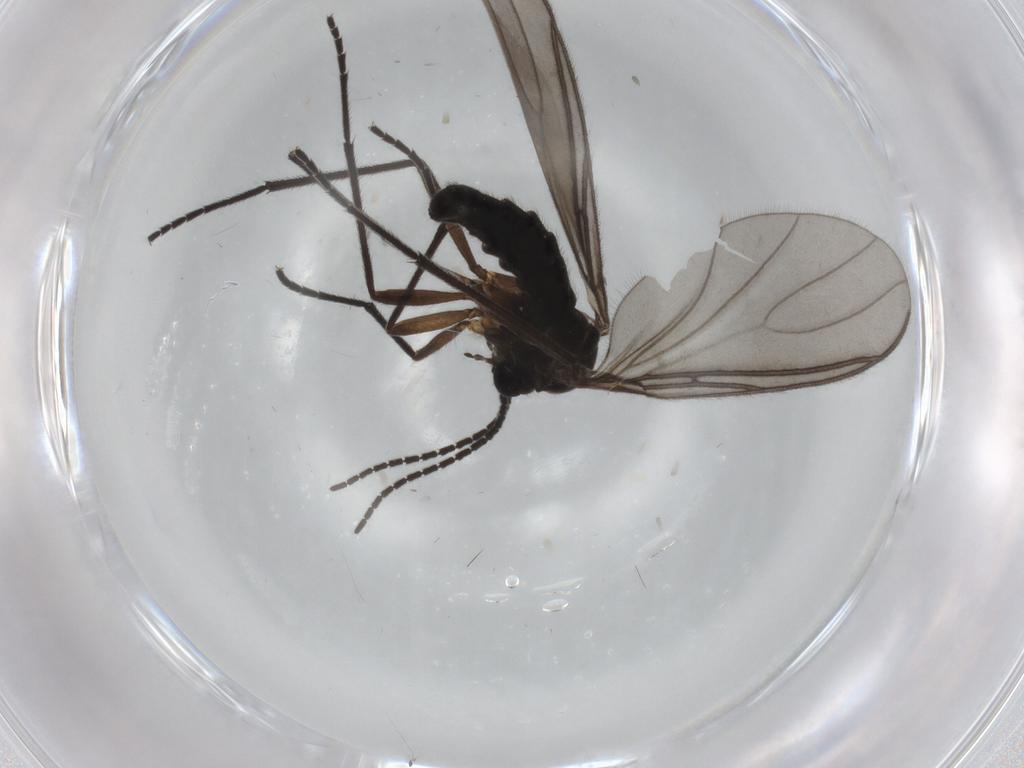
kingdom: Animalia
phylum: Arthropoda
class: Insecta
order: Diptera
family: Sciaridae
